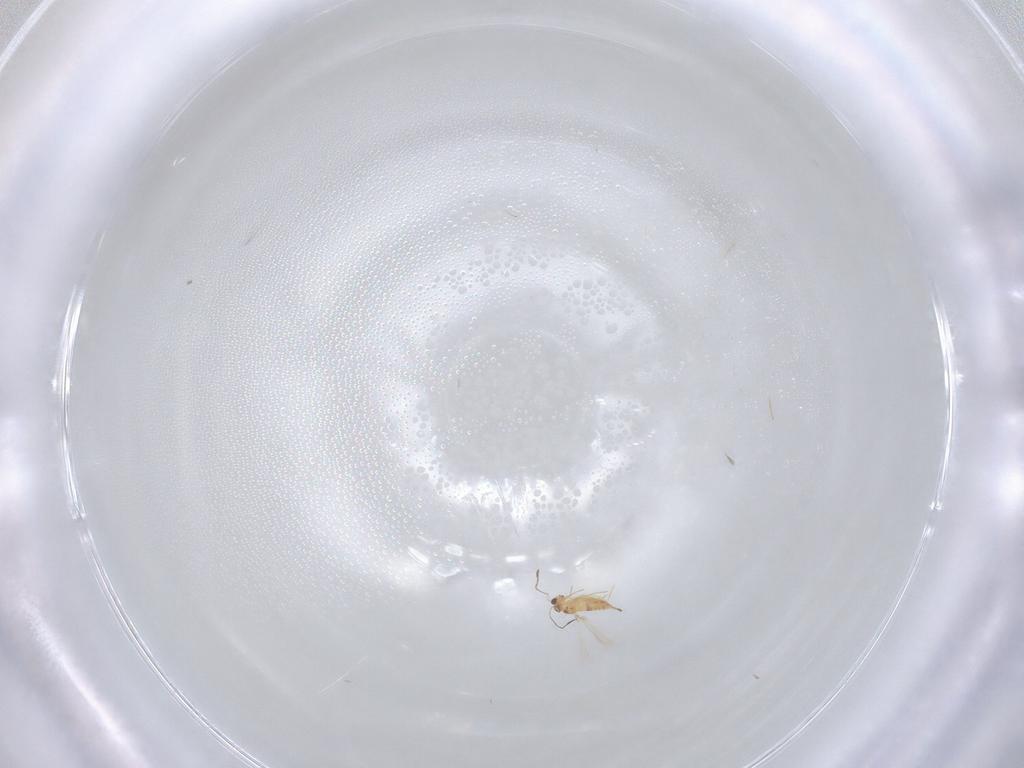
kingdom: Animalia
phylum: Arthropoda
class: Insecta
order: Hymenoptera
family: Mymaridae
